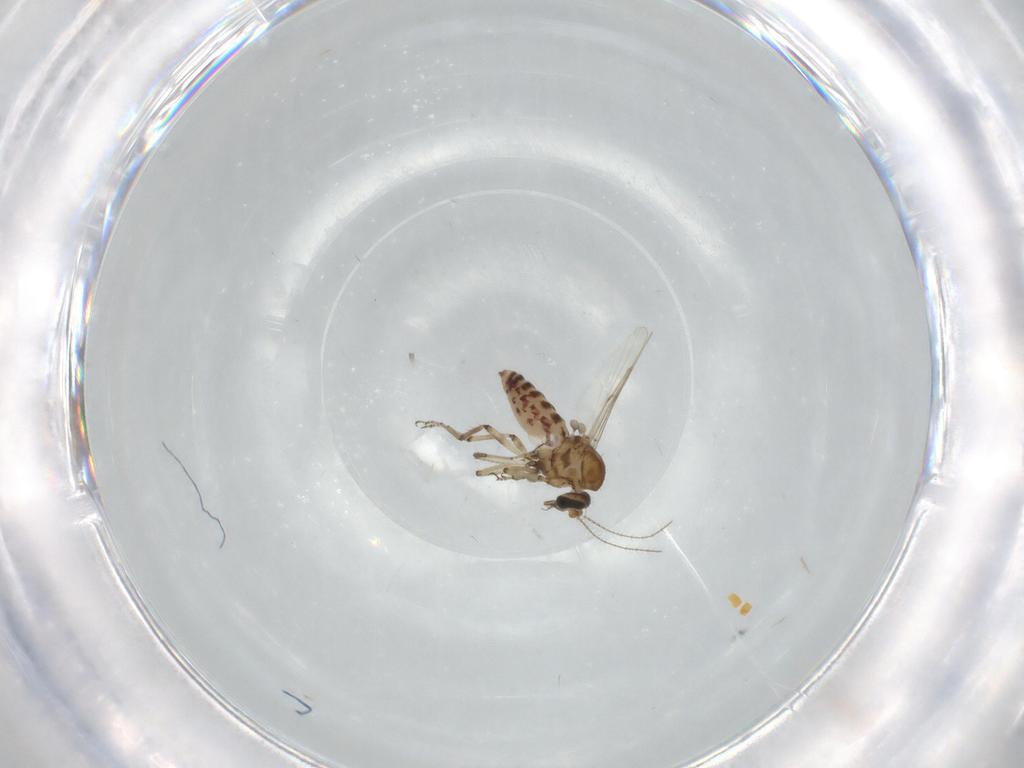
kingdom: Animalia
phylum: Arthropoda
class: Insecta
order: Diptera
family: Ceratopogonidae
